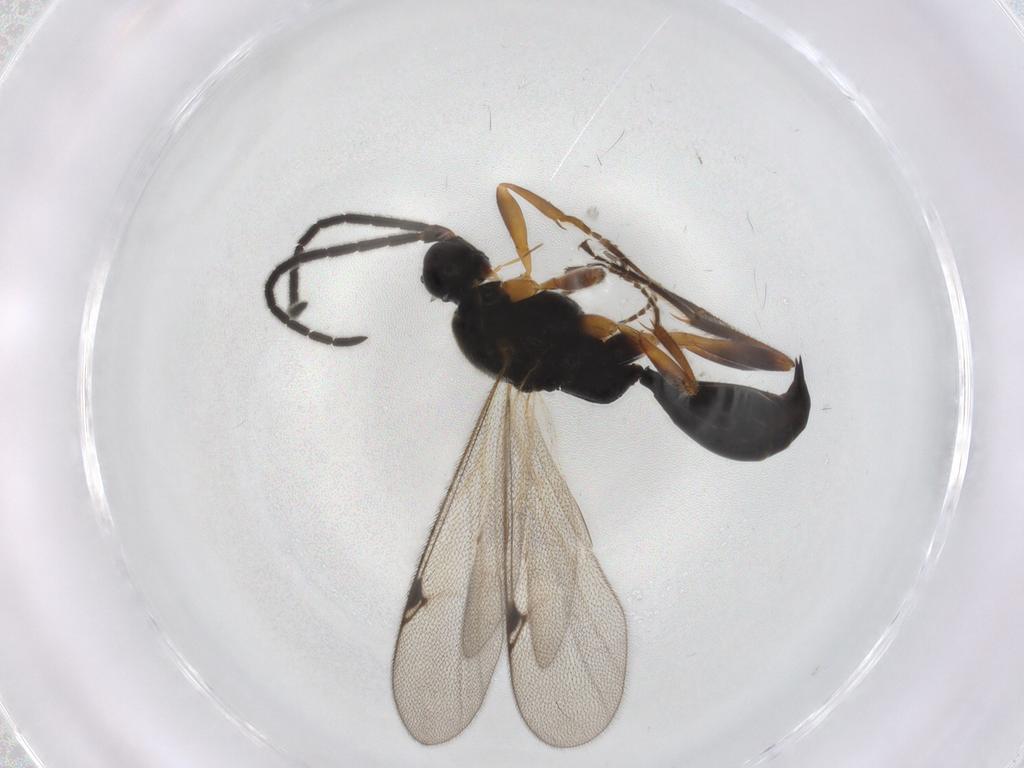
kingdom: Animalia
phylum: Arthropoda
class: Insecta
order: Hymenoptera
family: Proctotrupidae
